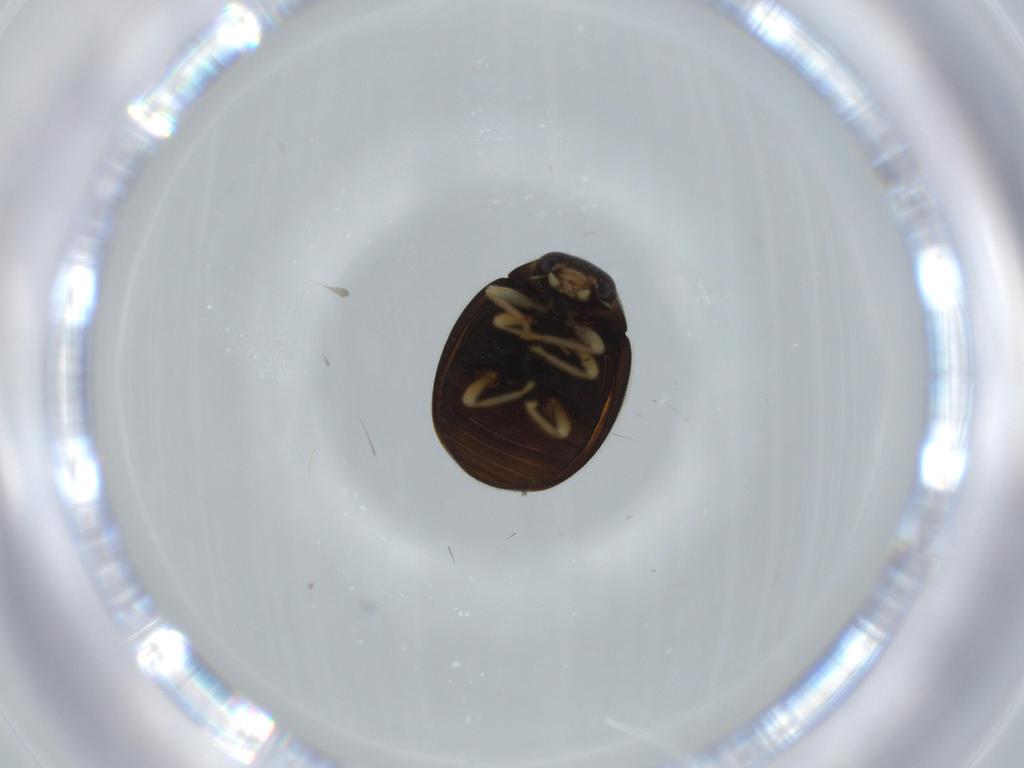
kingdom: Animalia
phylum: Arthropoda
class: Insecta
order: Coleoptera
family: Coccinellidae
